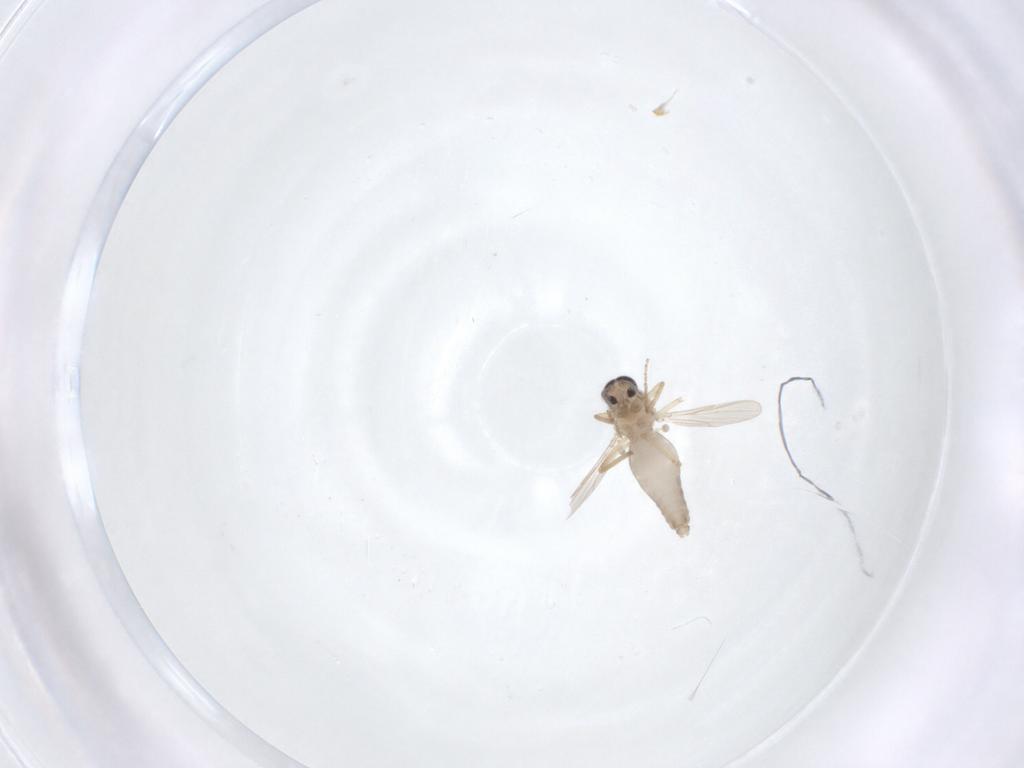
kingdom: Animalia
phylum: Arthropoda
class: Insecta
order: Diptera
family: Ceratopogonidae
